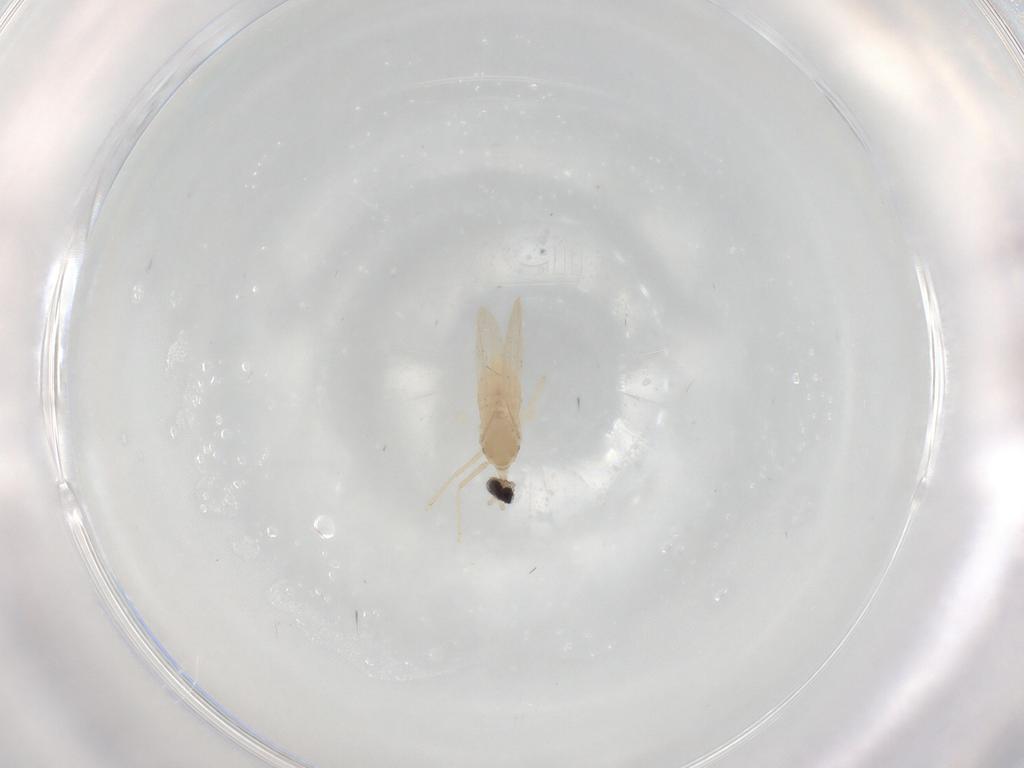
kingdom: Animalia
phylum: Arthropoda
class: Insecta
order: Diptera
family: Cecidomyiidae
